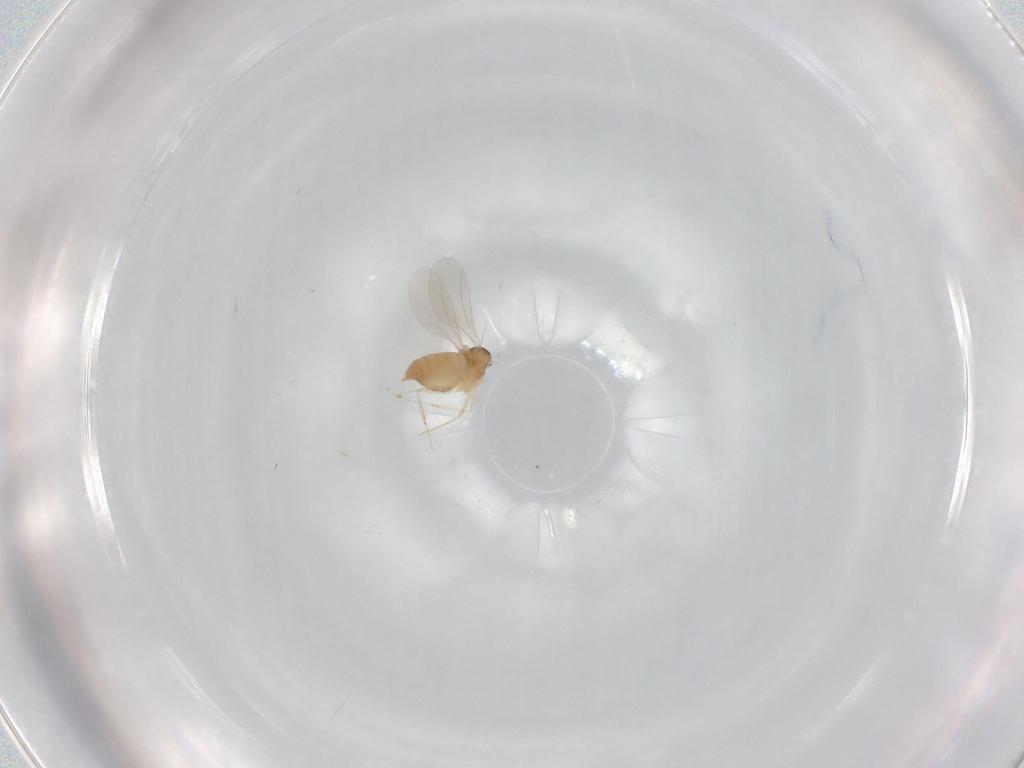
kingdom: Animalia
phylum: Arthropoda
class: Insecta
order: Diptera
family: Cecidomyiidae
